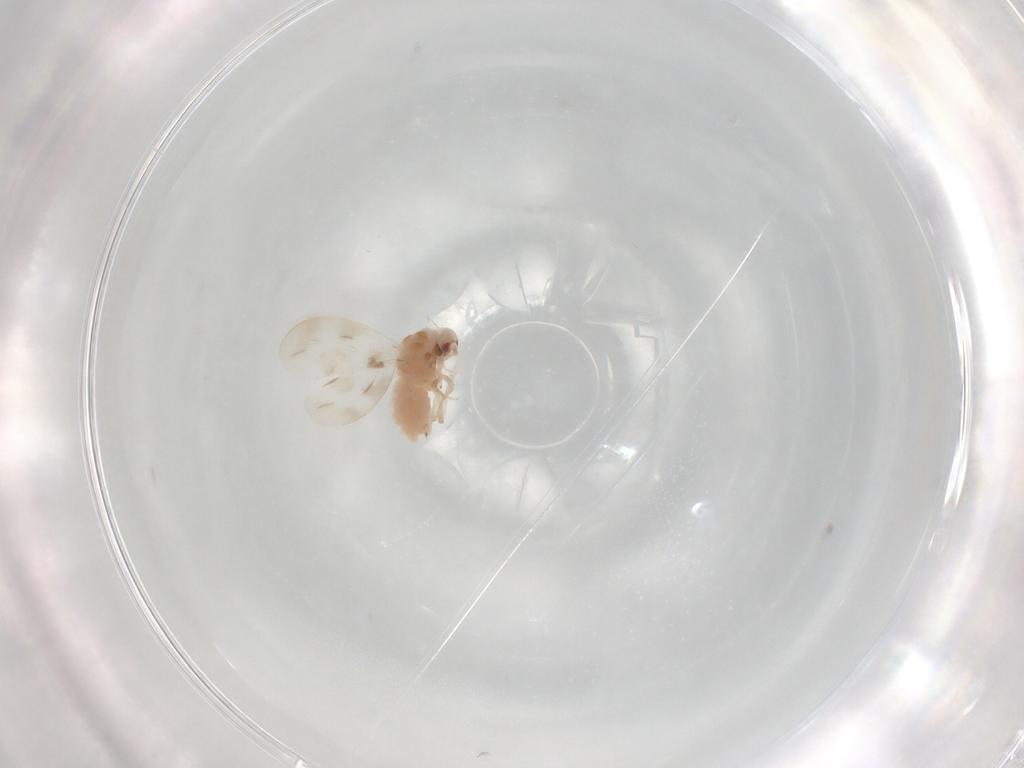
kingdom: Animalia
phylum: Arthropoda
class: Insecta
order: Hemiptera
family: Aleyrodidae
